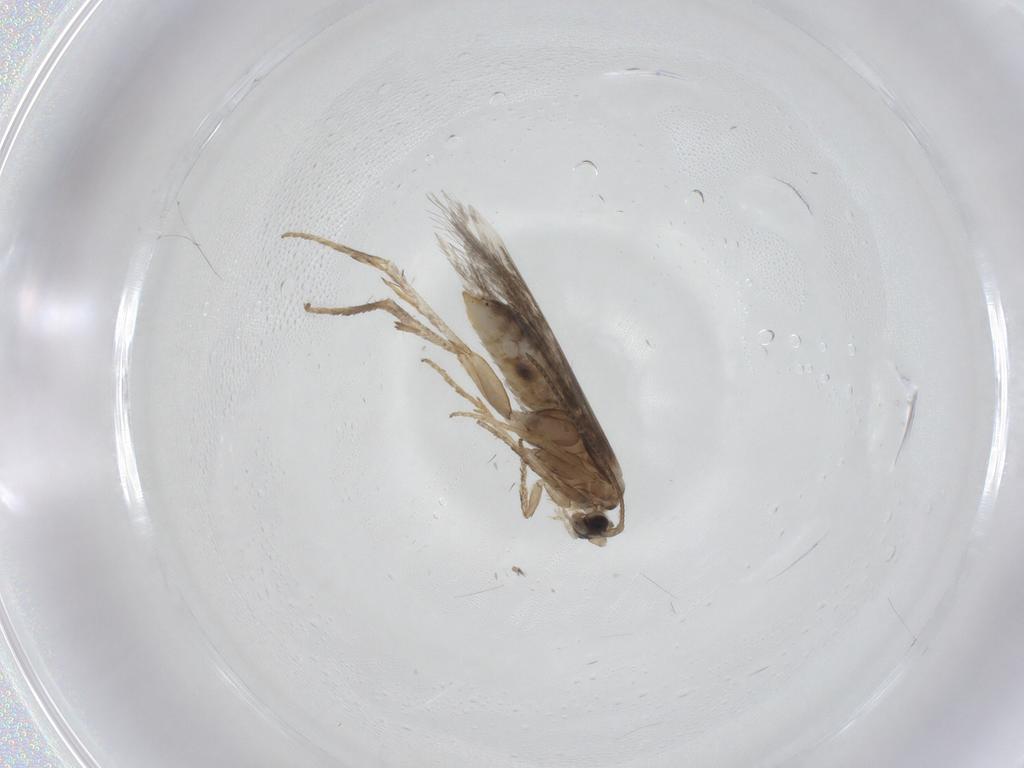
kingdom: Animalia
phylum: Arthropoda
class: Insecta
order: Lepidoptera
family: Nepticulidae
